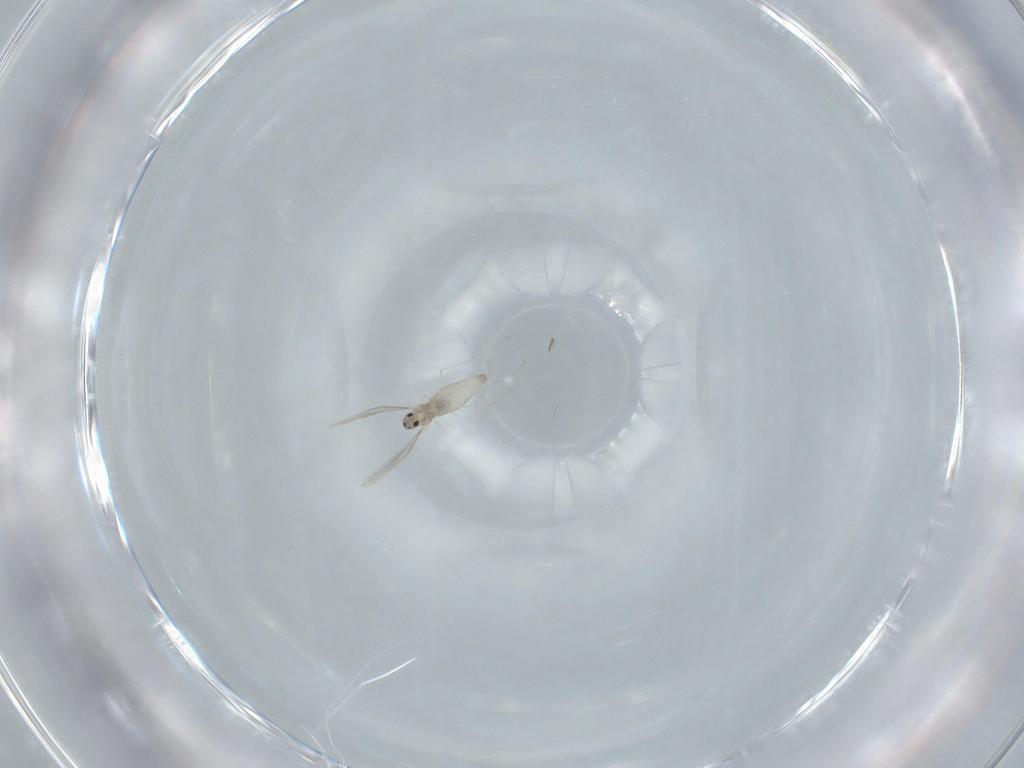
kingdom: Animalia
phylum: Arthropoda
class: Insecta
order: Diptera
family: Cecidomyiidae
